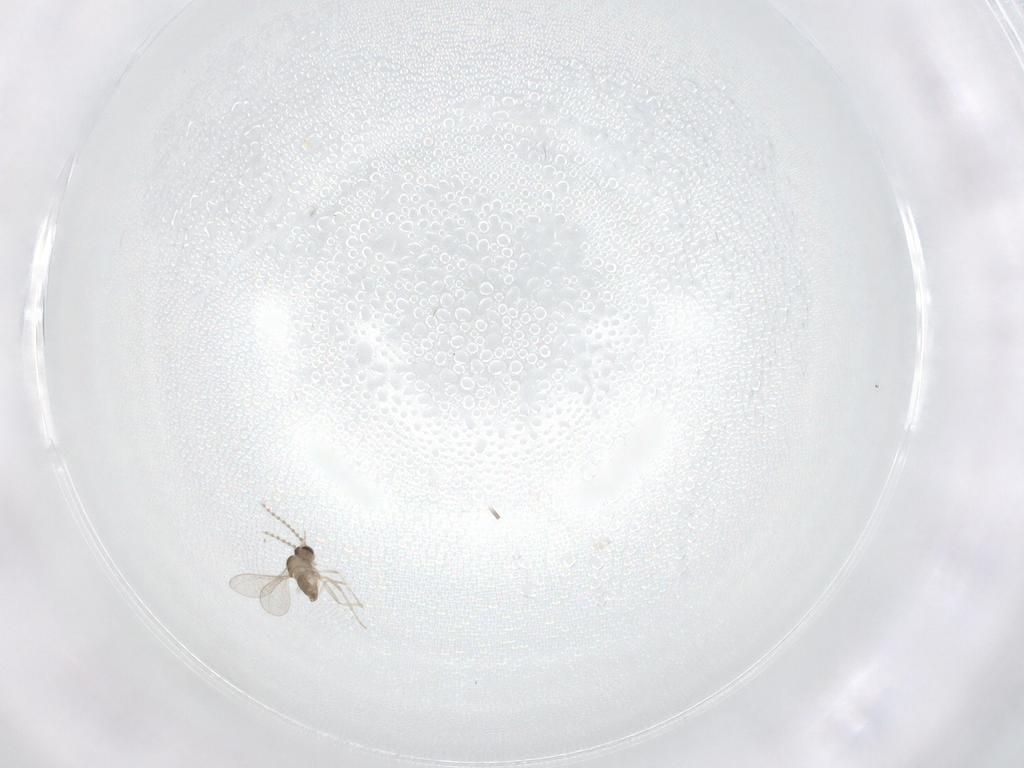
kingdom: Animalia
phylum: Arthropoda
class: Insecta
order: Diptera
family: Cecidomyiidae
